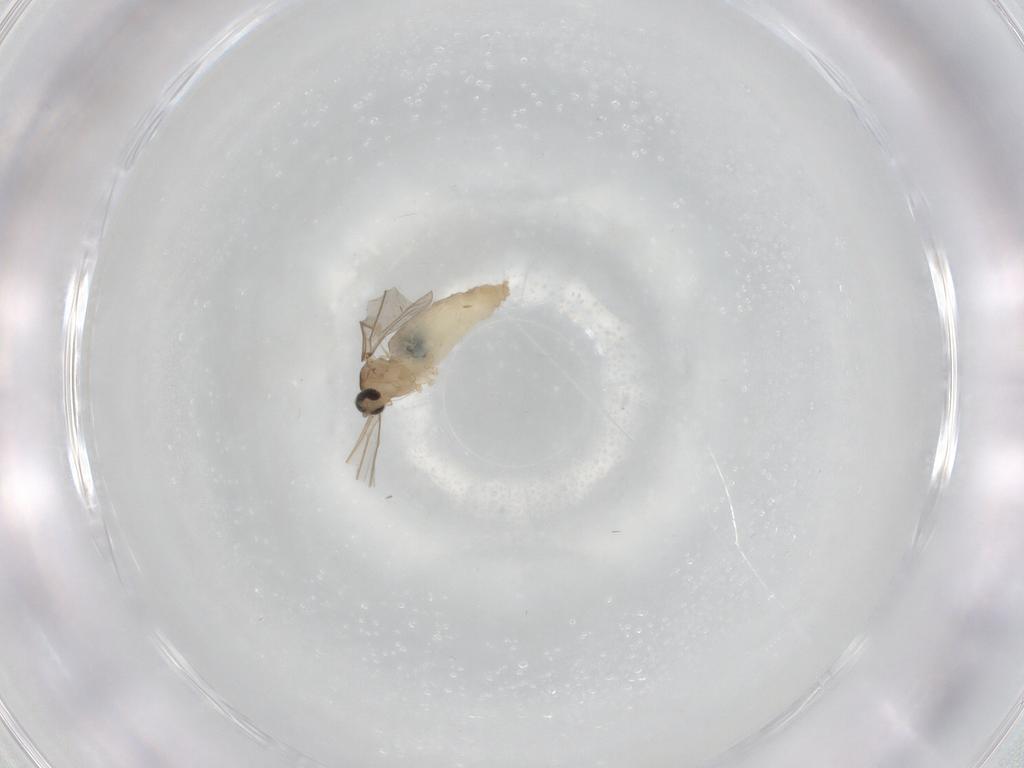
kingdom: Animalia
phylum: Arthropoda
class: Insecta
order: Diptera
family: Cecidomyiidae
